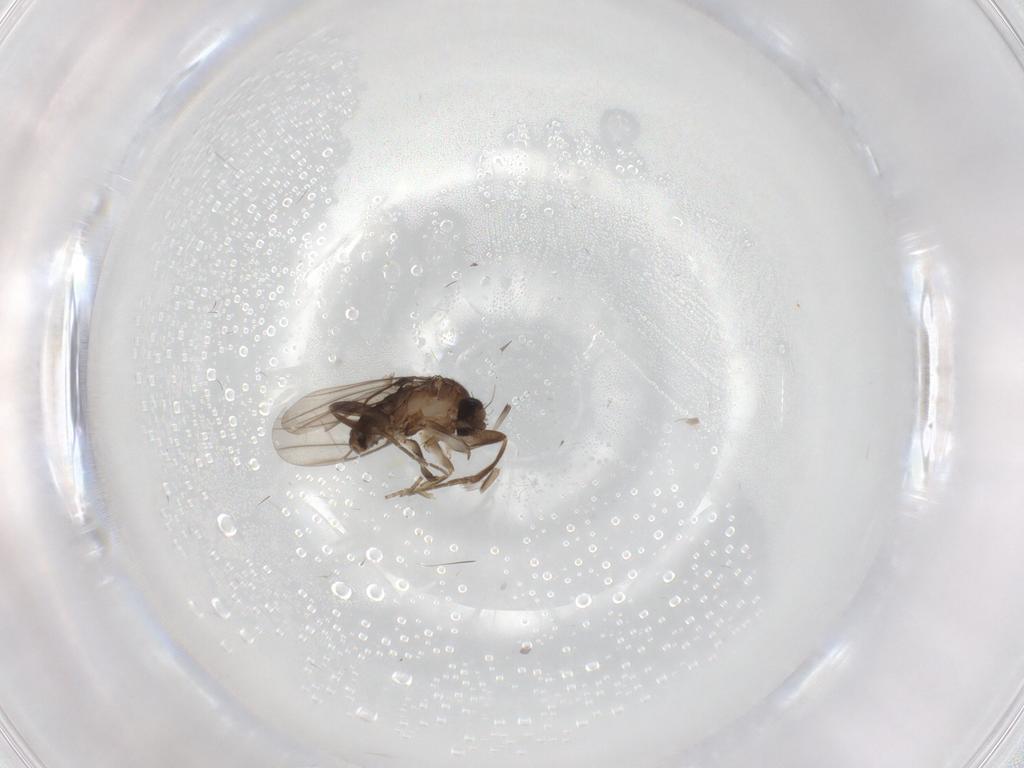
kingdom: Animalia
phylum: Arthropoda
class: Insecta
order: Diptera
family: Phoridae
